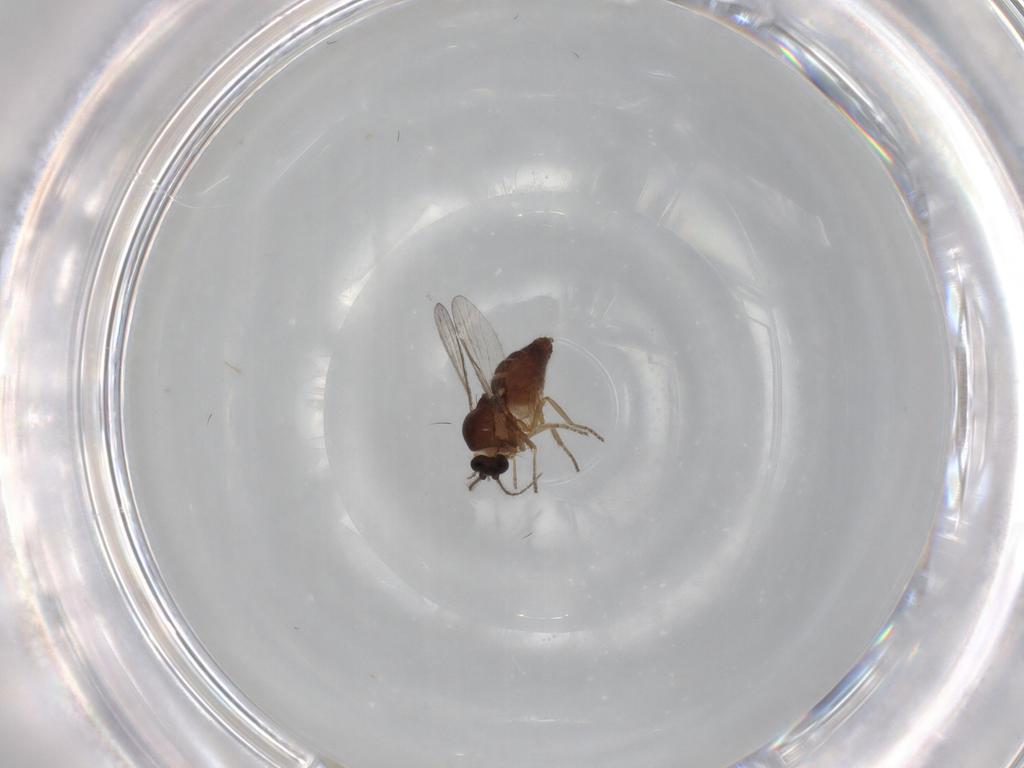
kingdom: Animalia
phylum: Arthropoda
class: Insecta
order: Diptera
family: Ceratopogonidae
